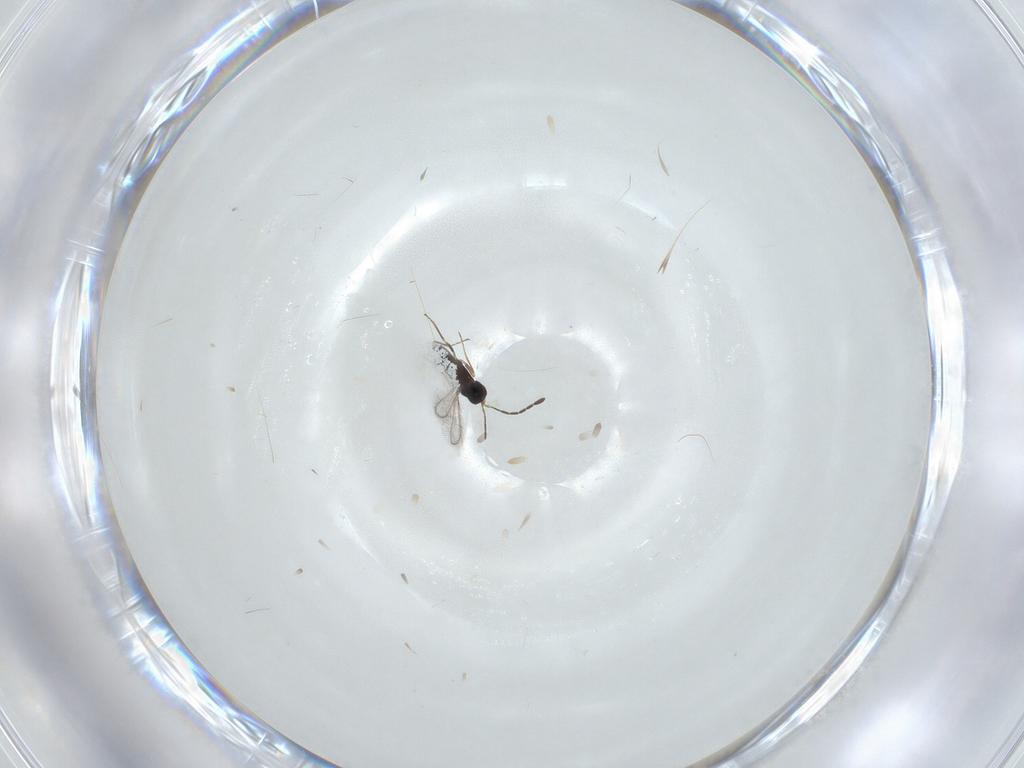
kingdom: Animalia
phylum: Arthropoda
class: Insecta
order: Hymenoptera
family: Mymaridae
